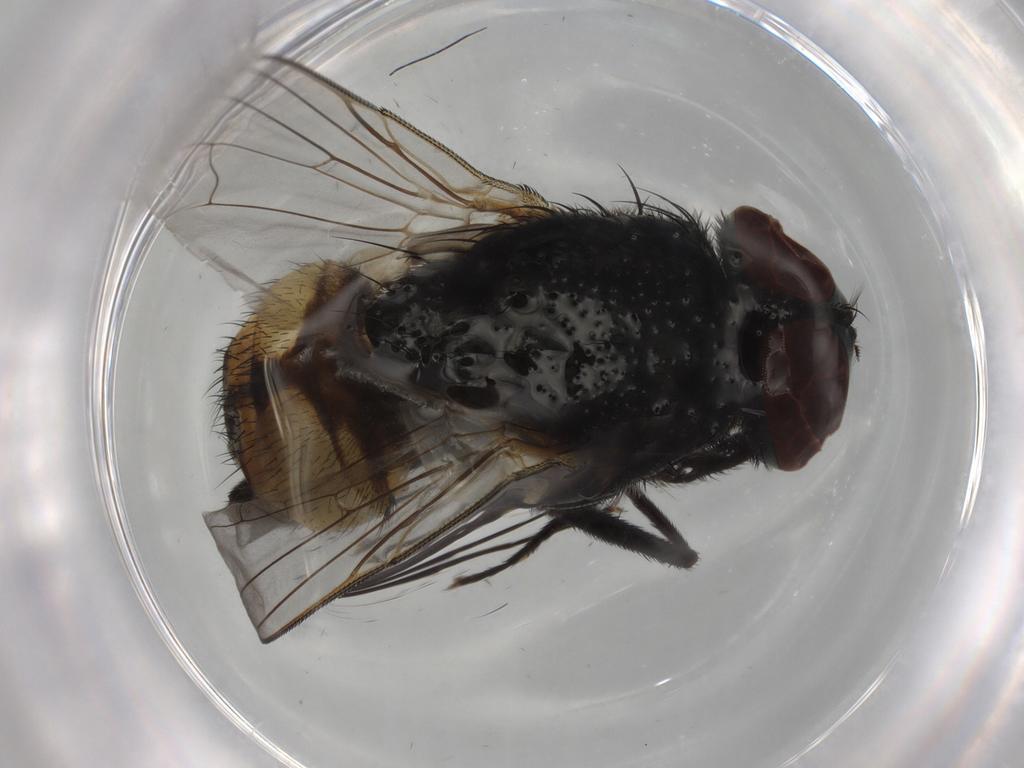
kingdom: Animalia
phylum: Arthropoda
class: Insecta
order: Diptera
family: Muscidae
